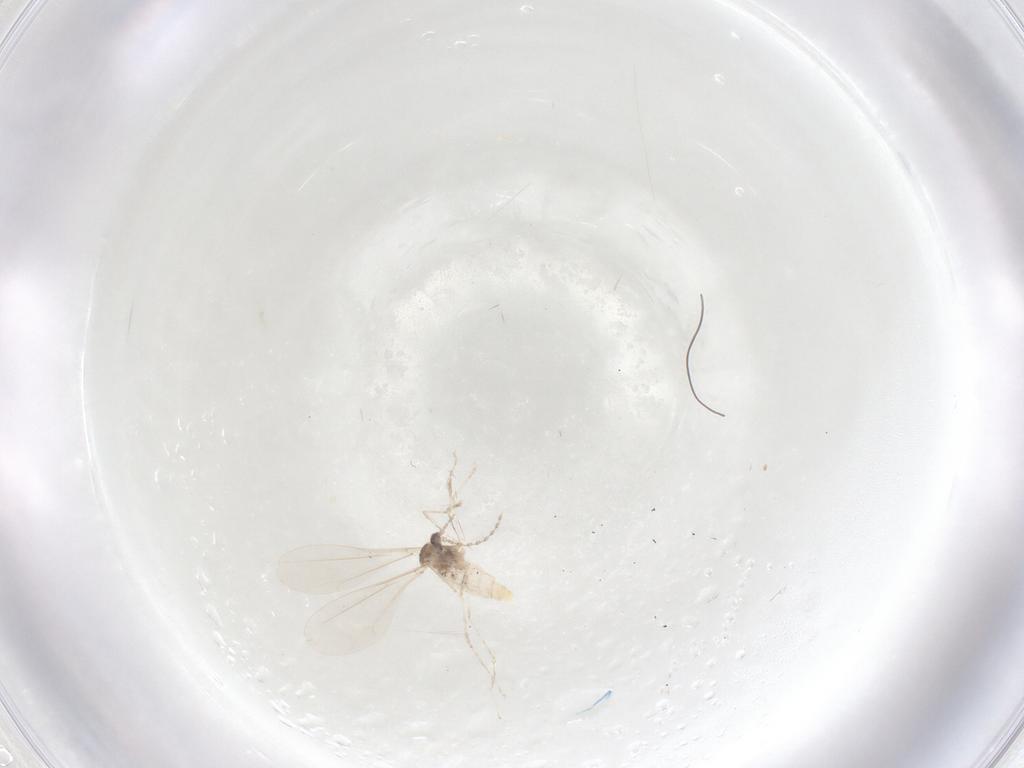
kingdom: Animalia
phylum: Arthropoda
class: Insecta
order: Diptera
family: Cecidomyiidae
